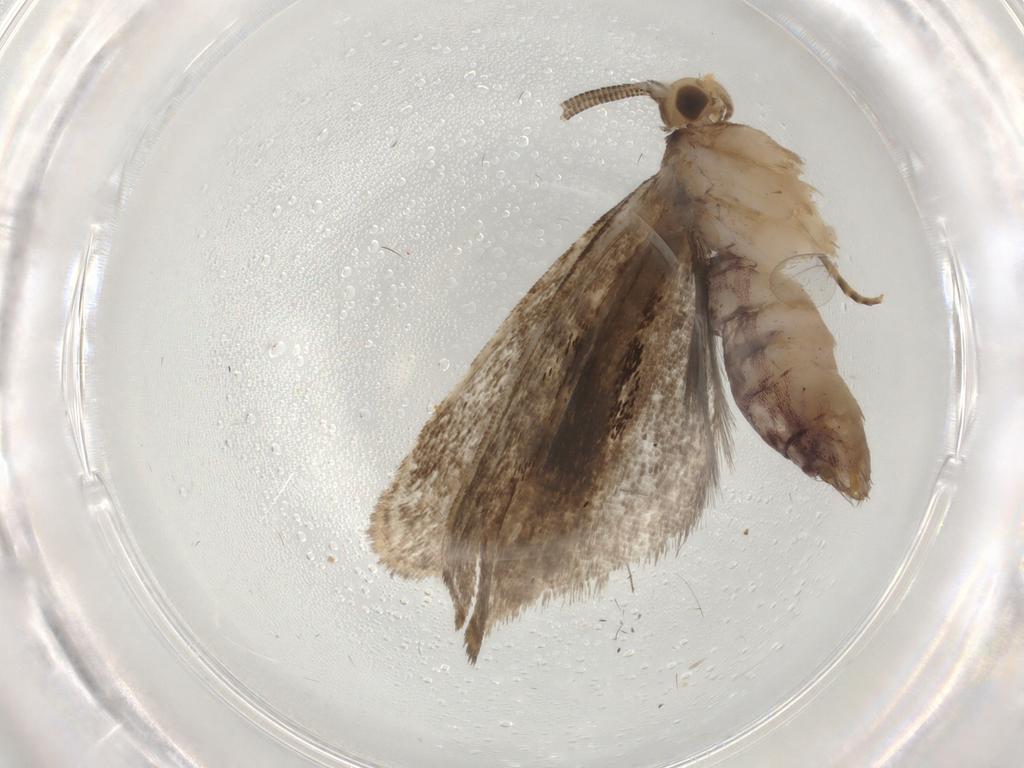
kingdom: Animalia
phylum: Arthropoda
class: Insecta
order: Lepidoptera
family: Dryadaulidae
